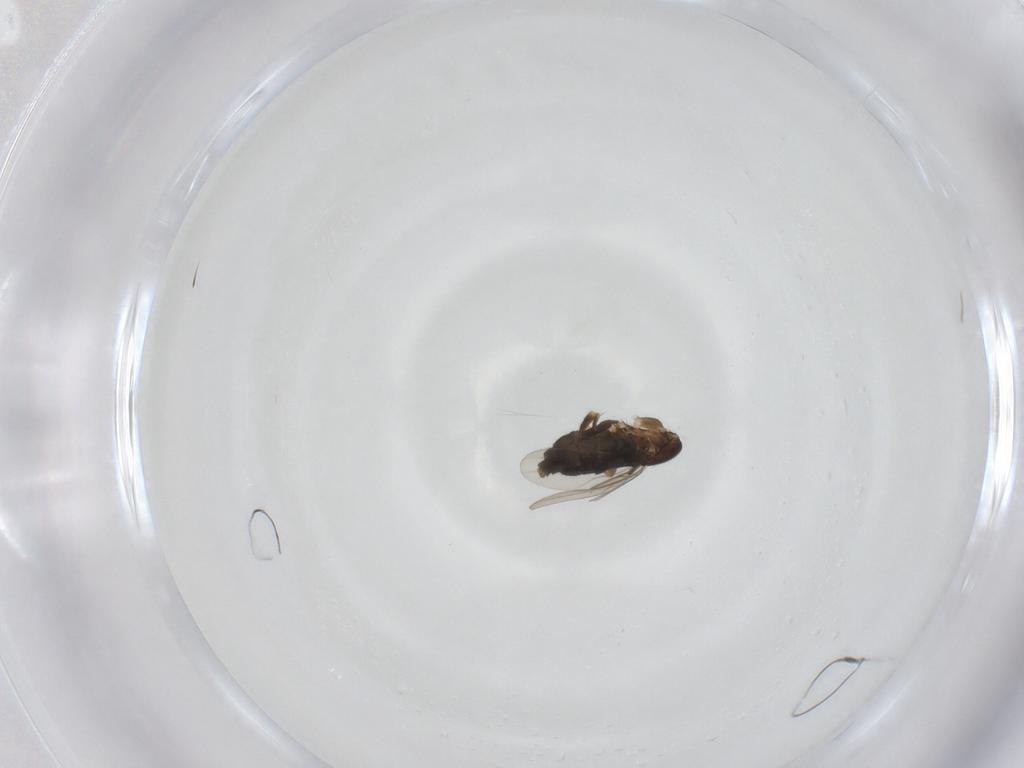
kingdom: Animalia
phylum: Arthropoda
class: Insecta
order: Diptera
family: Phoridae
